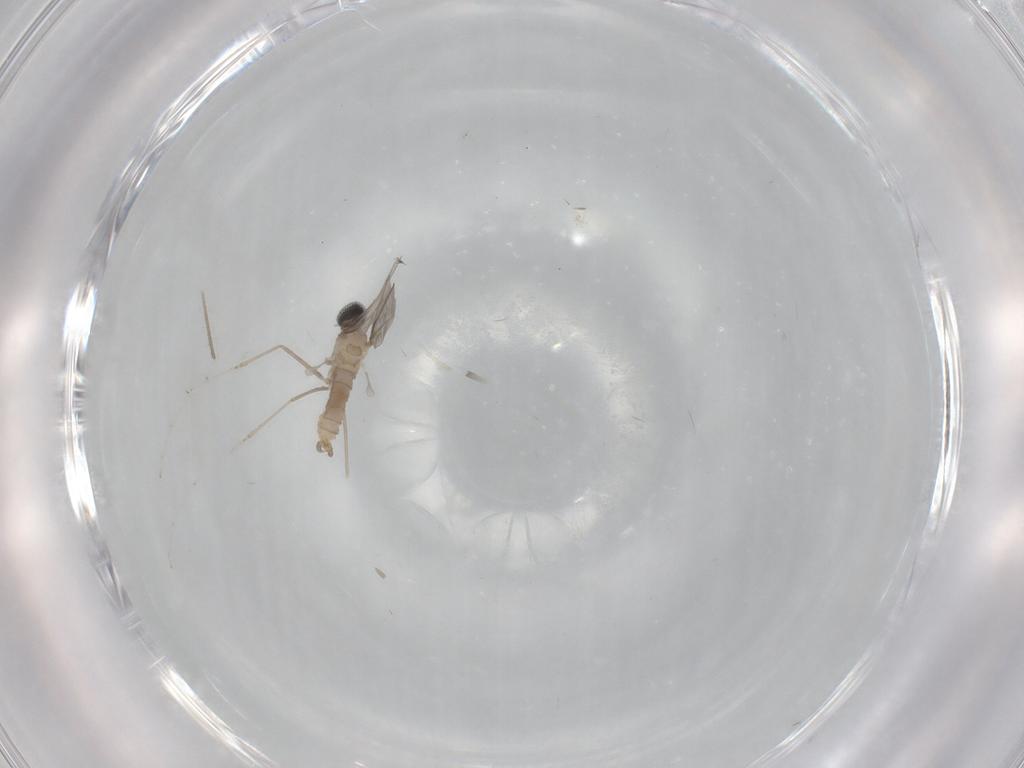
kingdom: Animalia
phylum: Arthropoda
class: Insecta
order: Diptera
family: Cecidomyiidae
